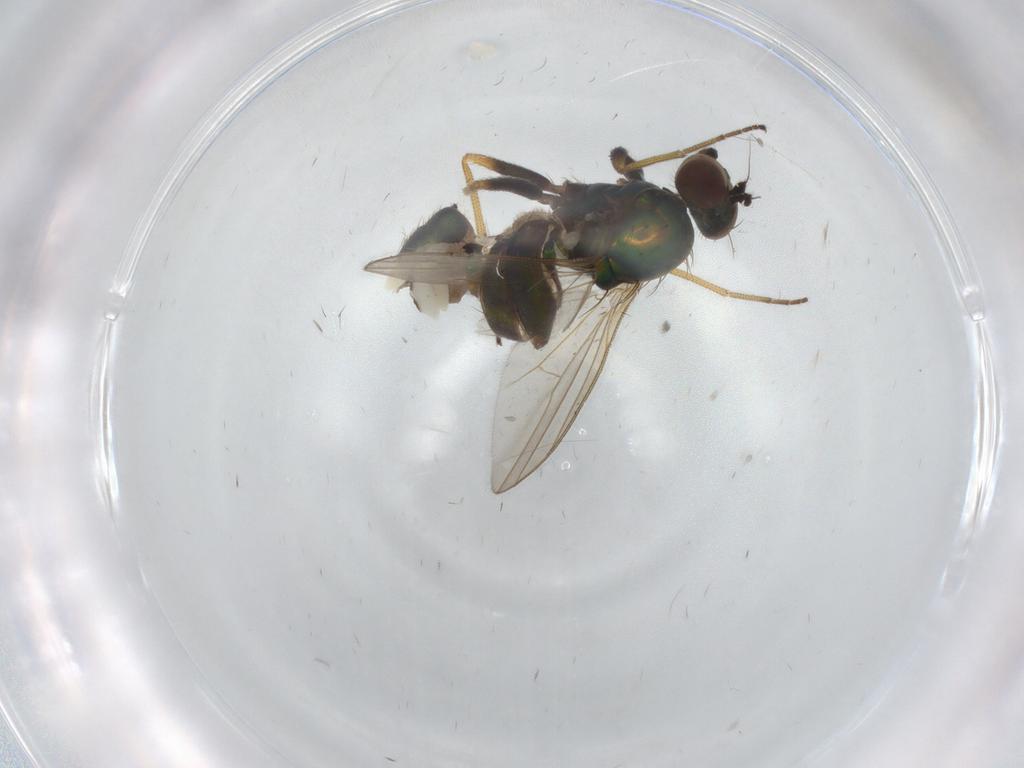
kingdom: Animalia
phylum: Arthropoda
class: Insecta
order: Diptera
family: Dolichopodidae
